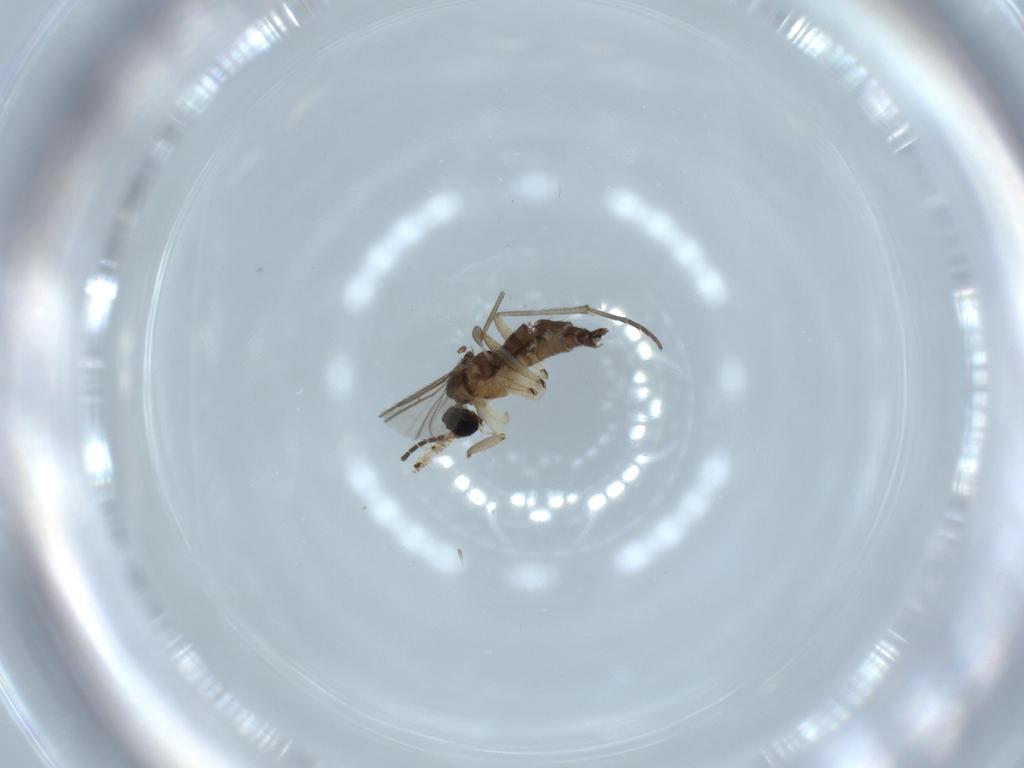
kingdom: Animalia
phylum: Arthropoda
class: Insecta
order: Diptera
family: Sciaridae
